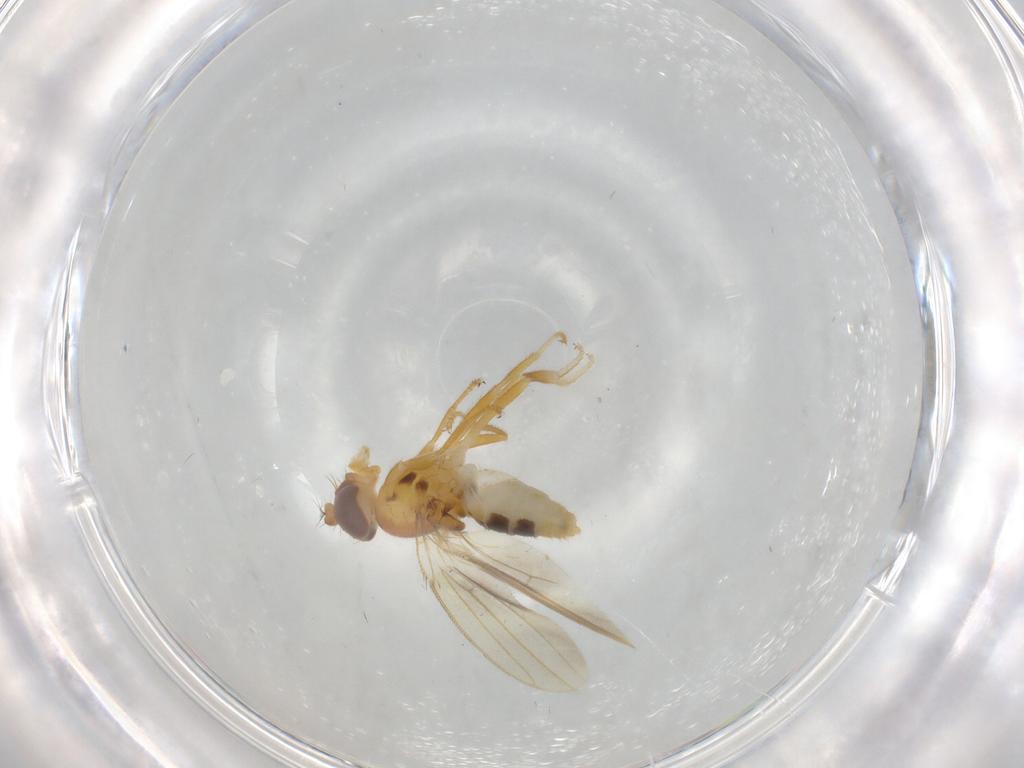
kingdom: Animalia
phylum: Arthropoda
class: Insecta
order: Diptera
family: Periscelididae
